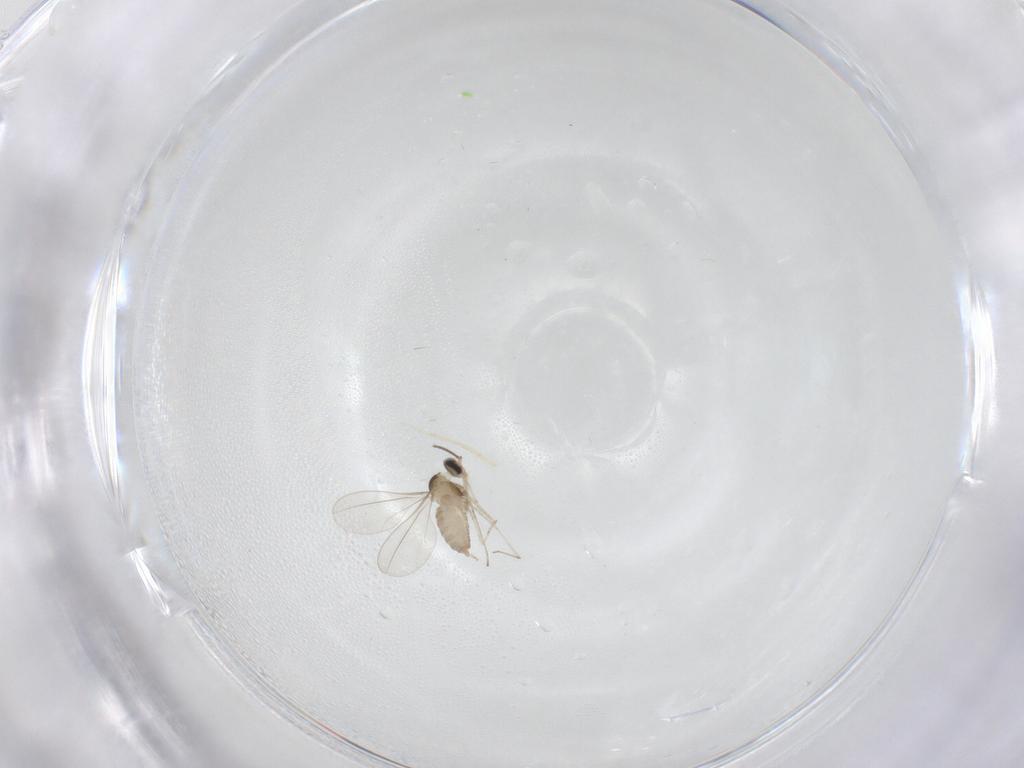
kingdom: Animalia
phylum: Arthropoda
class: Insecta
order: Diptera
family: Cecidomyiidae
